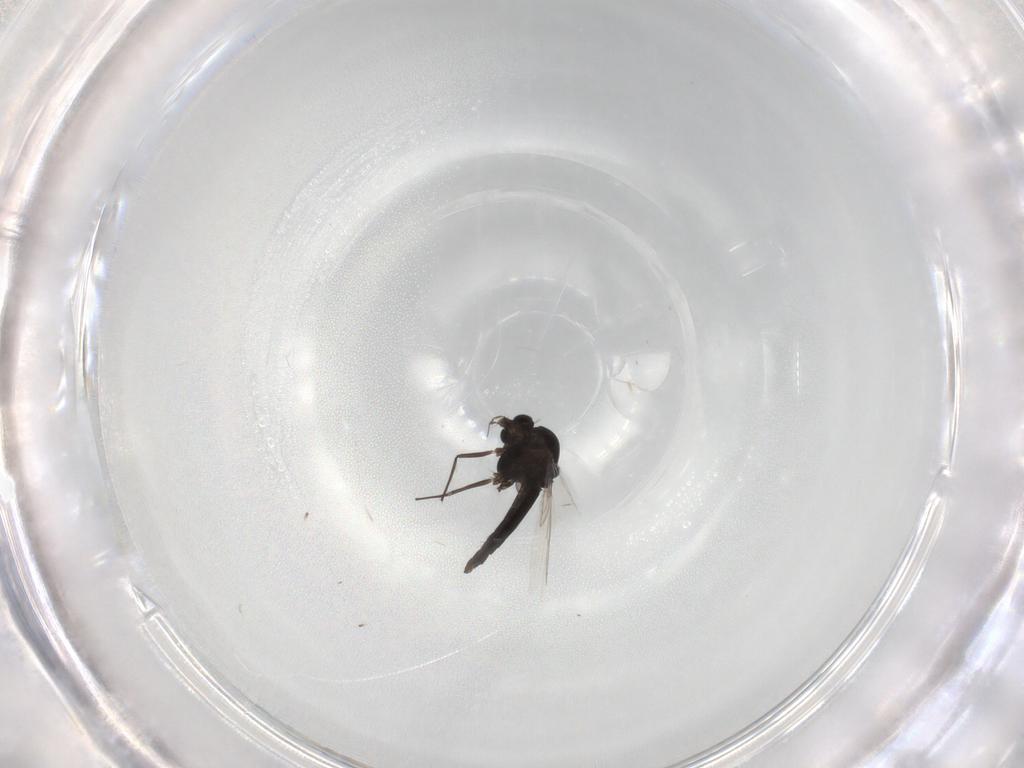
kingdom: Animalia
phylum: Arthropoda
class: Insecta
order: Diptera
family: Chironomidae
